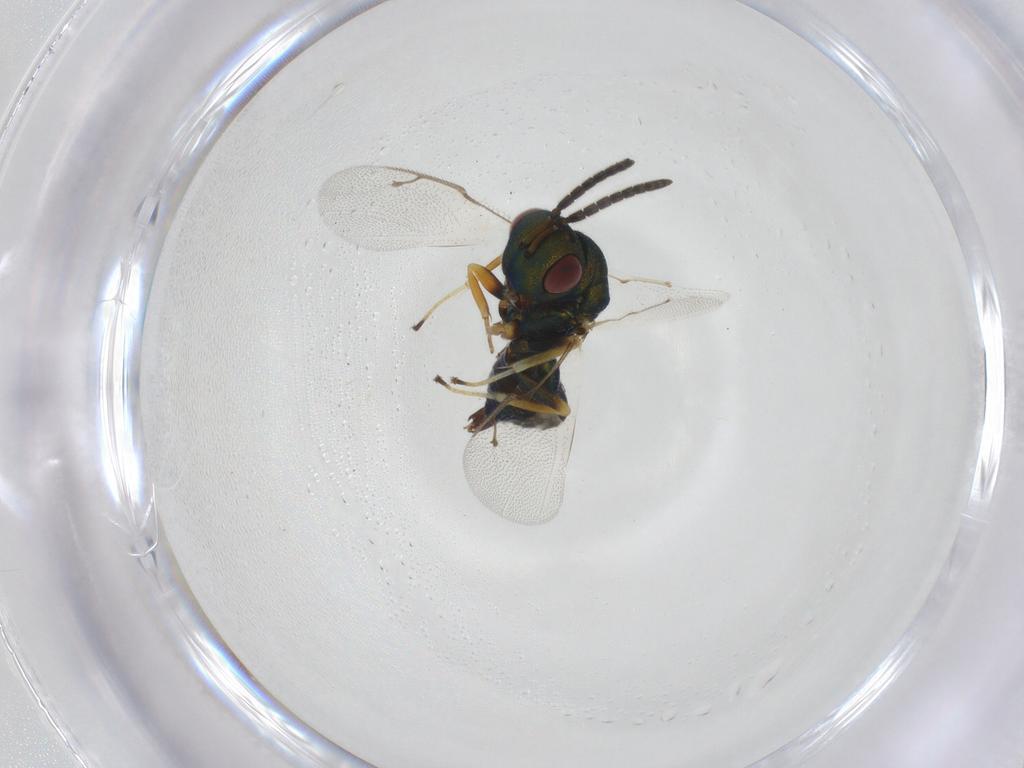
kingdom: Animalia
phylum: Arthropoda
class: Insecta
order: Hymenoptera
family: Pteromalidae
